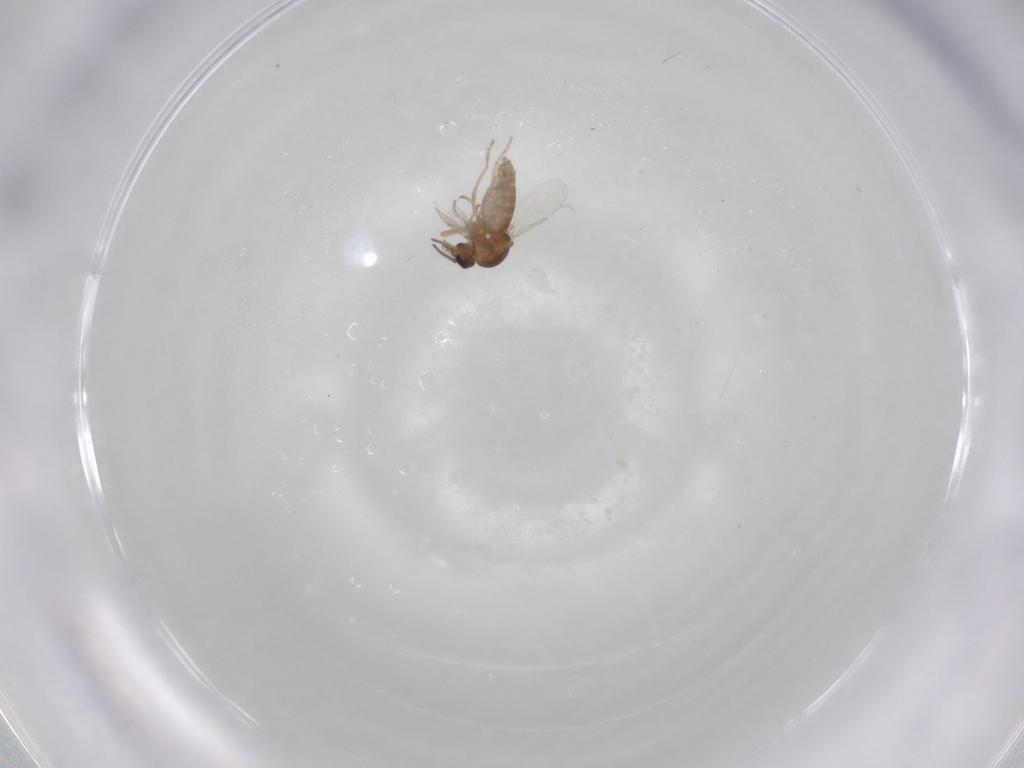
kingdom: Animalia
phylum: Arthropoda
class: Insecta
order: Diptera
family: Ceratopogonidae
